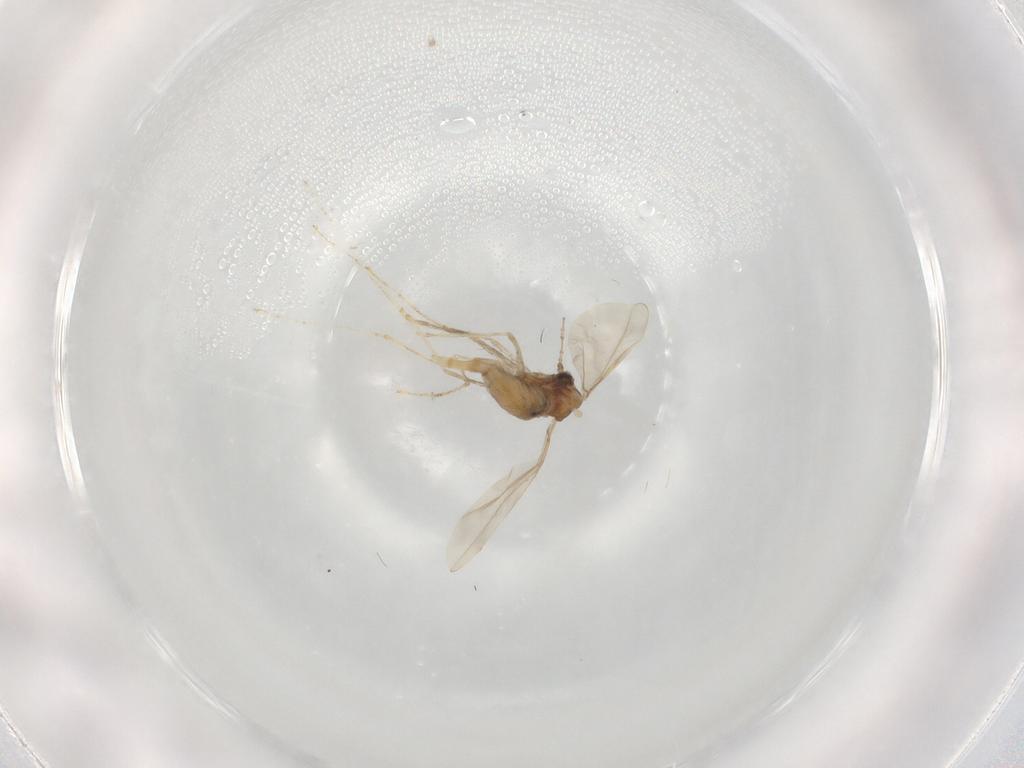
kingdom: Animalia
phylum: Arthropoda
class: Insecta
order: Diptera
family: Cecidomyiidae
